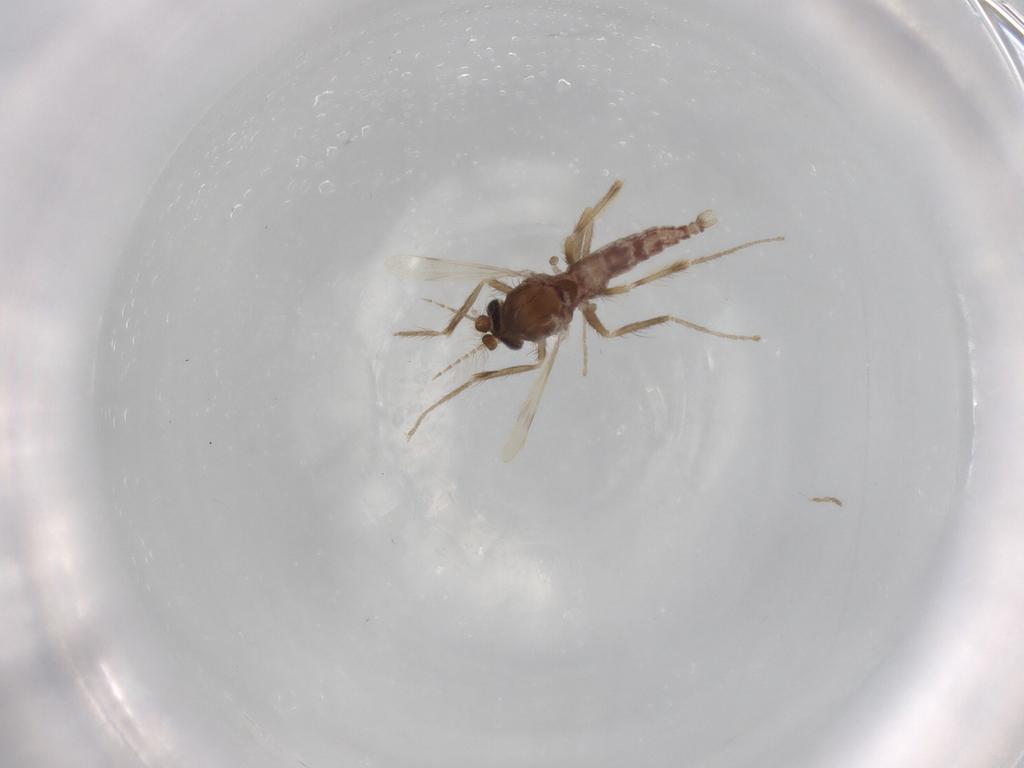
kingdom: Animalia
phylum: Arthropoda
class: Insecta
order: Diptera
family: Corethrellidae
